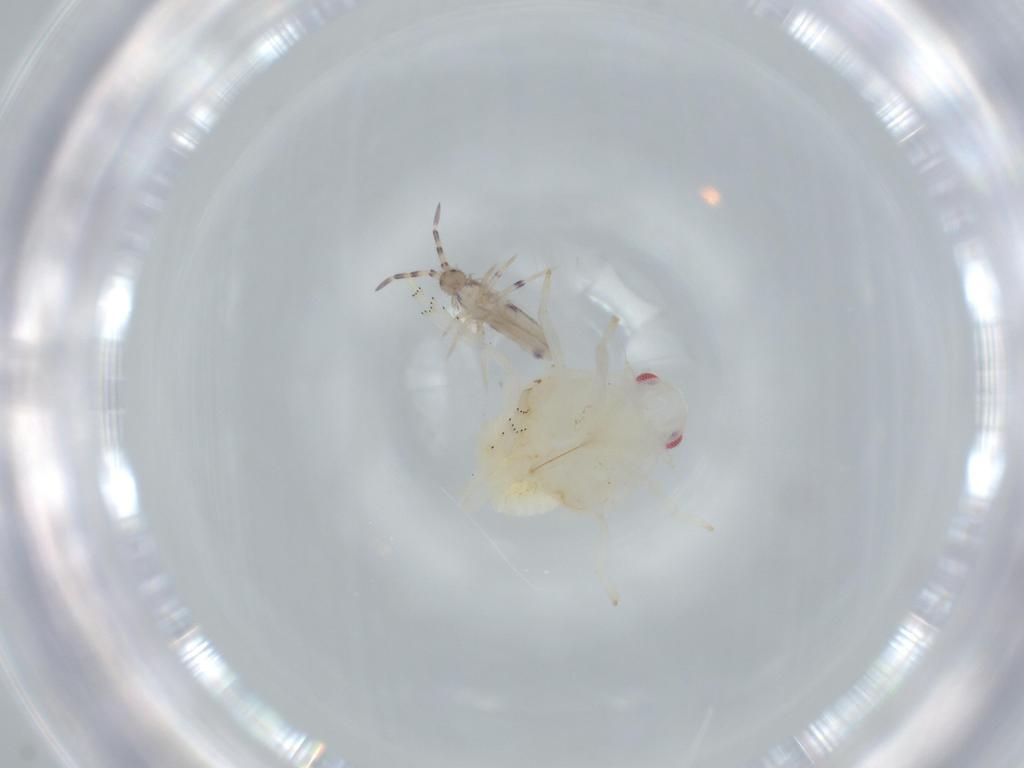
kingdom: Animalia
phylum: Arthropoda
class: Collembola
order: Entomobryomorpha
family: Entomobryidae
